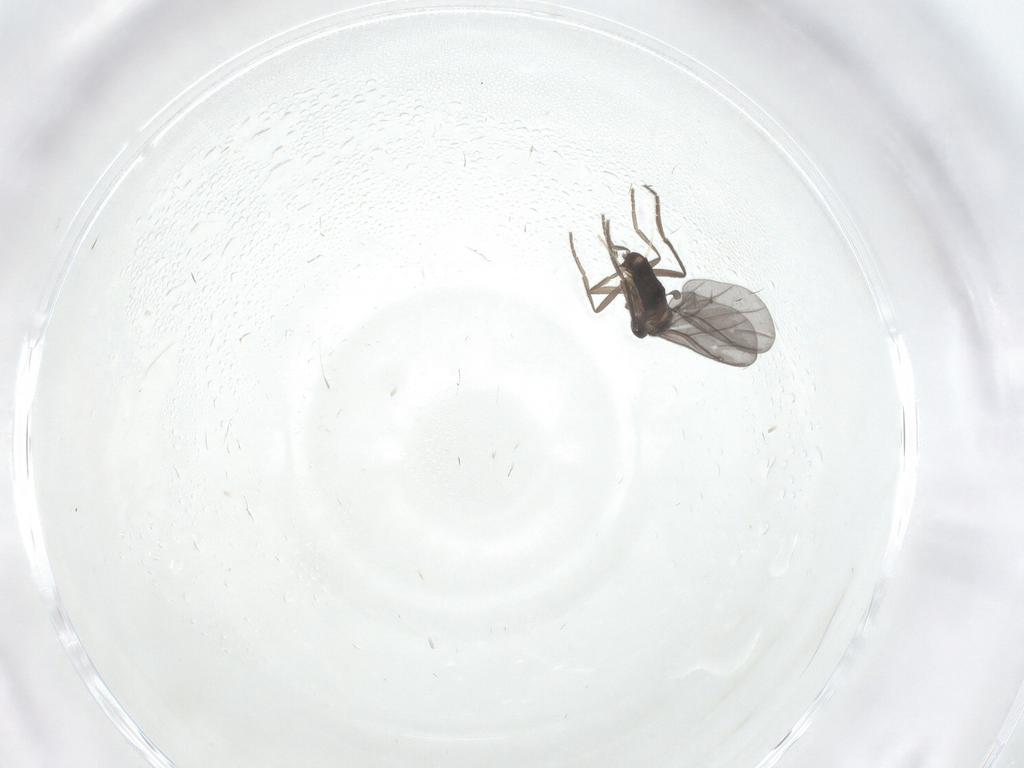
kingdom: Animalia
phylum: Arthropoda
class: Insecta
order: Diptera
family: Phoridae
